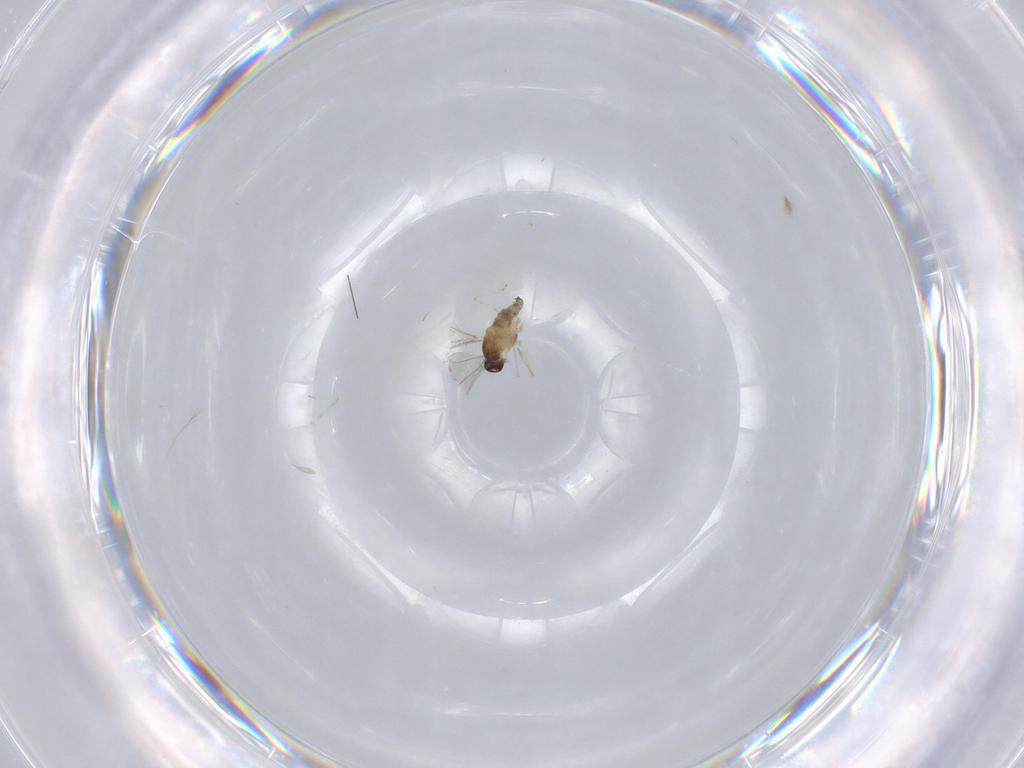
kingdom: Animalia
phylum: Arthropoda
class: Insecta
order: Diptera
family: Cecidomyiidae
